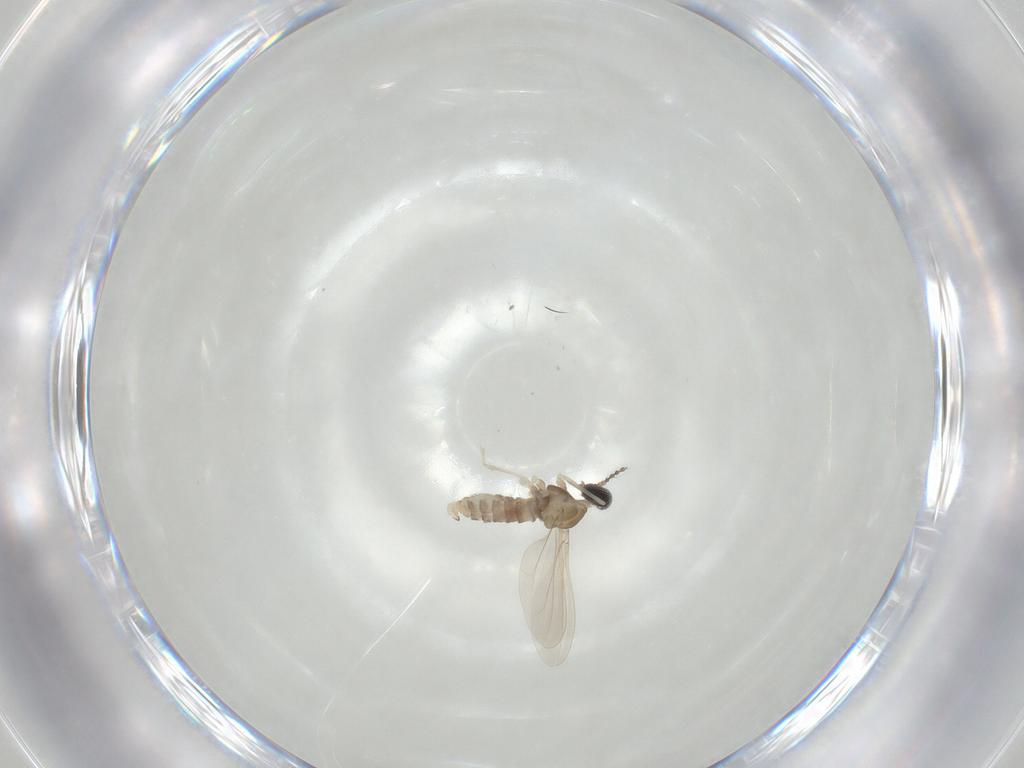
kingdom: Animalia
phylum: Arthropoda
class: Insecta
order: Diptera
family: Cecidomyiidae
